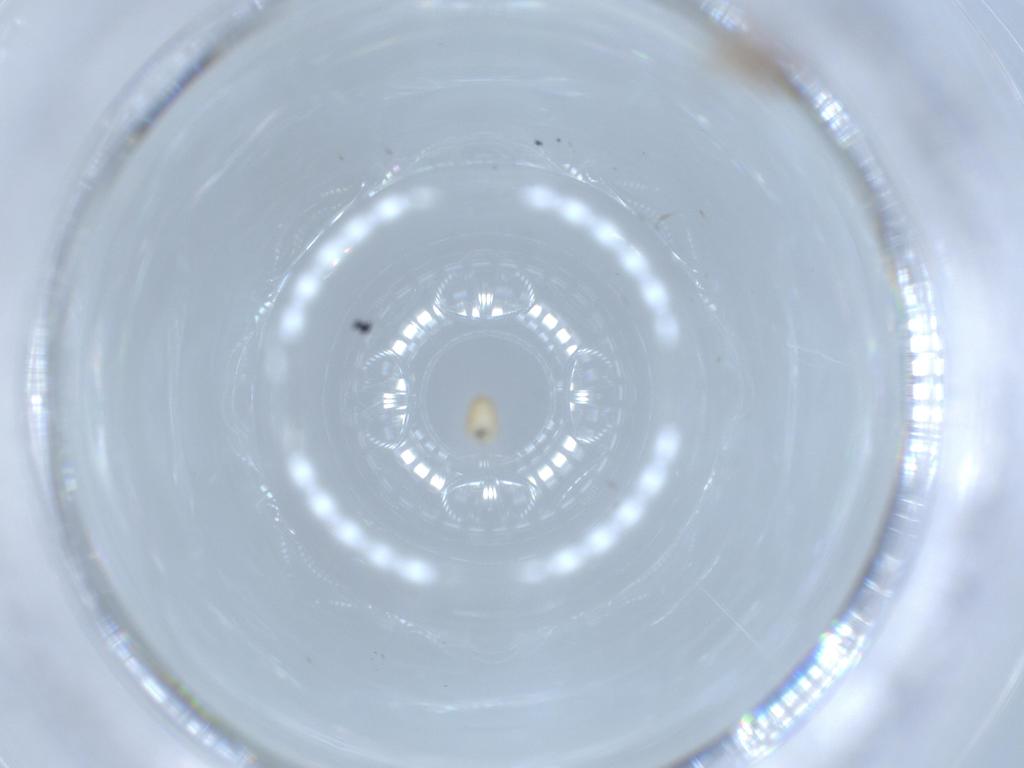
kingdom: Animalia
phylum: Arthropoda
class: Insecta
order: Diptera
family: Cecidomyiidae
